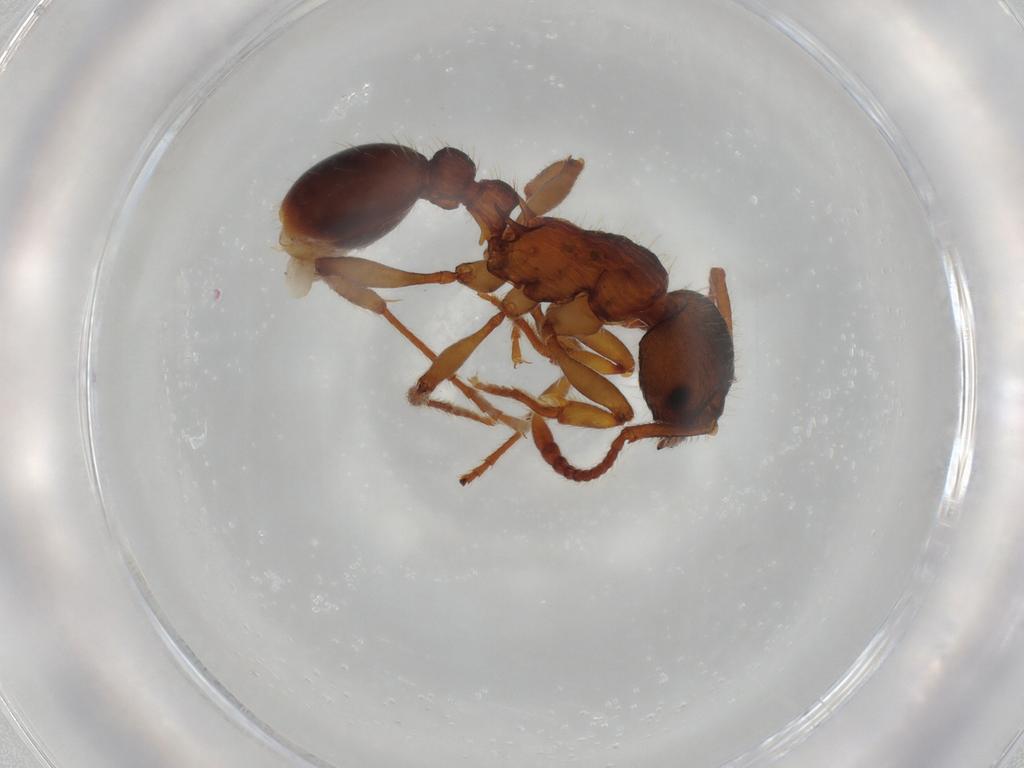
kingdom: Animalia
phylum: Arthropoda
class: Insecta
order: Hymenoptera
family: Formicidae
